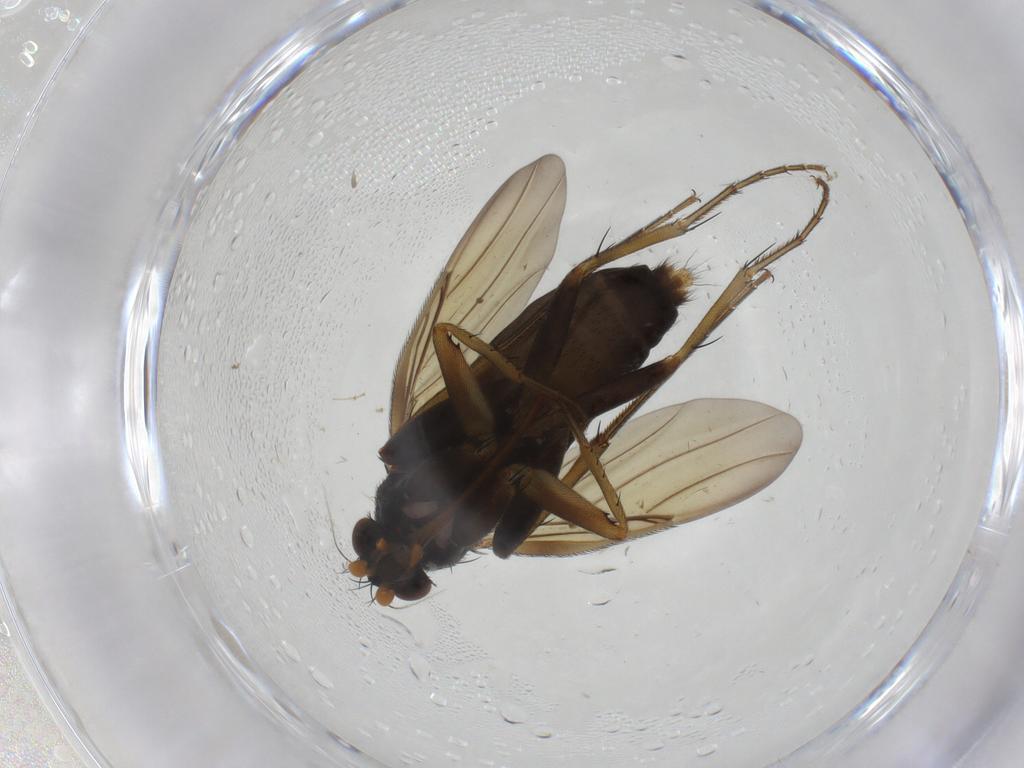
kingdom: Animalia
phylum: Arthropoda
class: Insecta
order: Diptera
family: Phoridae
